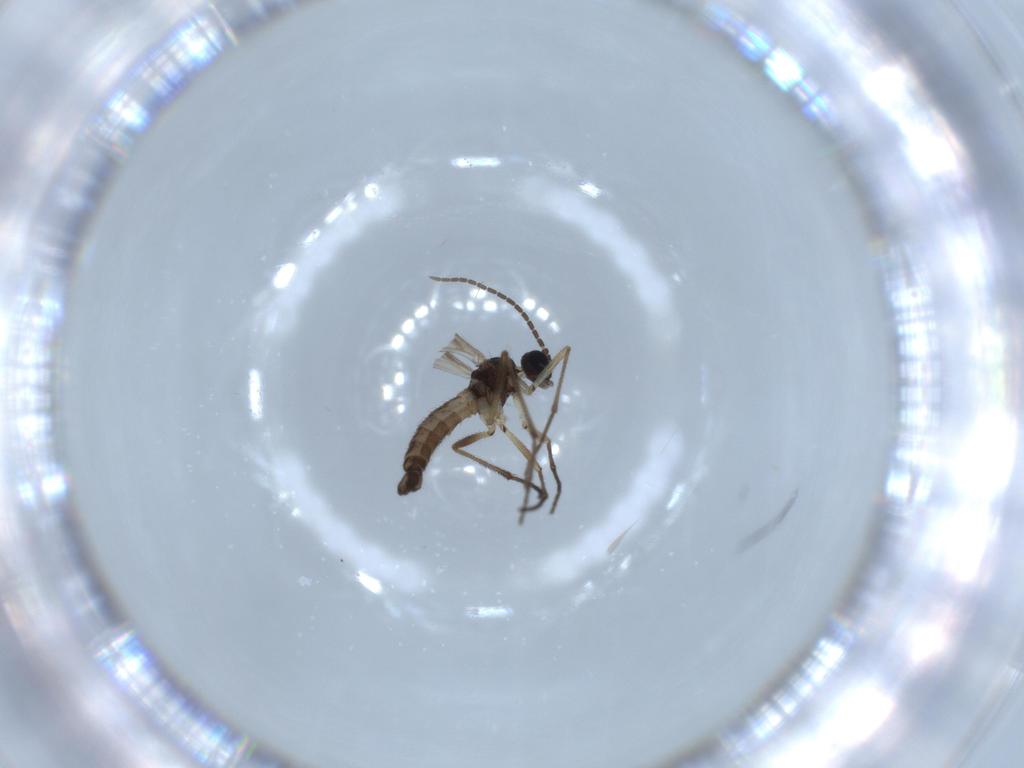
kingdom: Animalia
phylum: Arthropoda
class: Insecta
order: Diptera
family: Sciaridae
